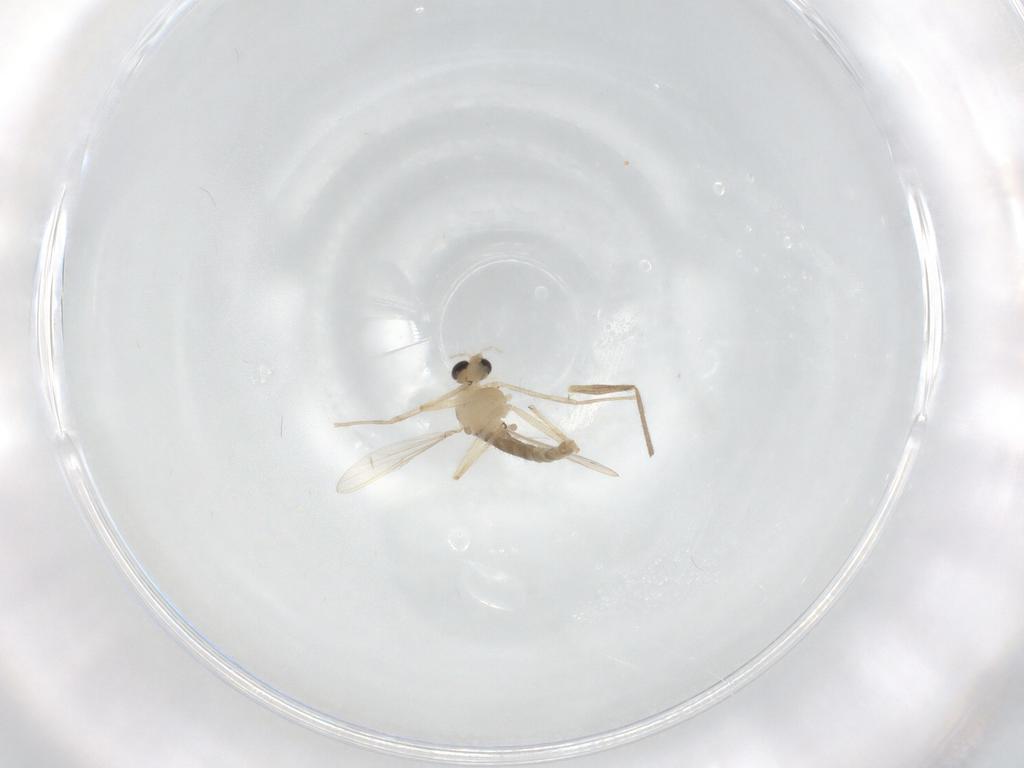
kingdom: Animalia
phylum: Arthropoda
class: Insecta
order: Diptera
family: Chironomidae
